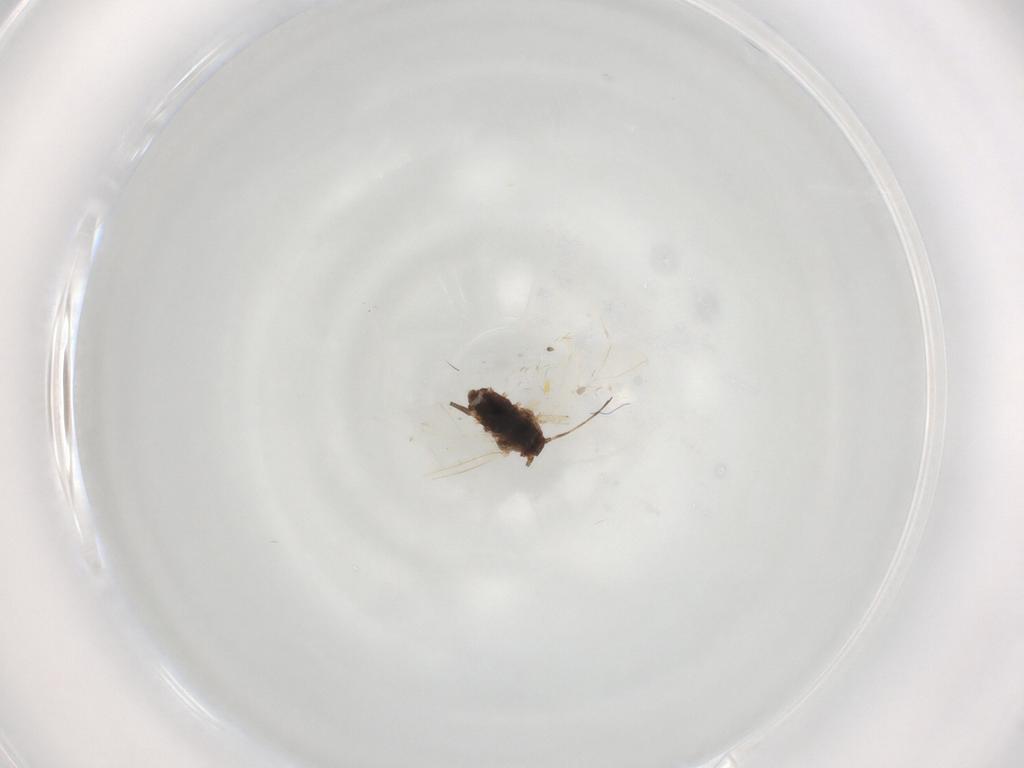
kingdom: Animalia
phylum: Arthropoda
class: Insecta
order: Hemiptera
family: Aphididae
